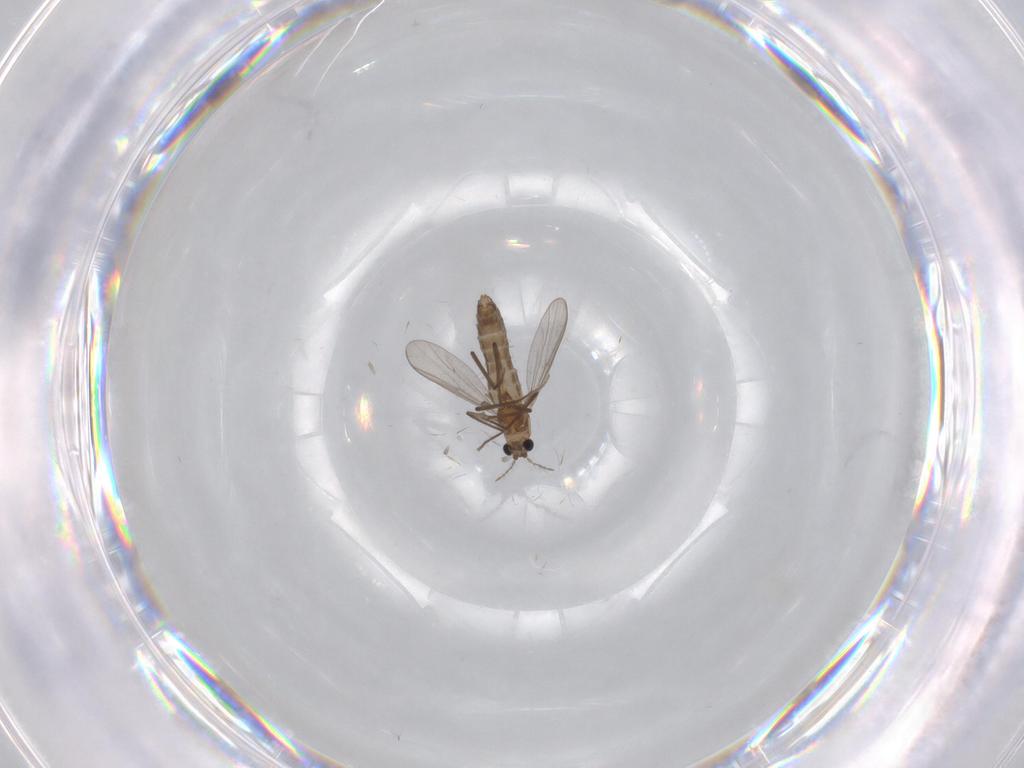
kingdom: Animalia
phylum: Arthropoda
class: Insecta
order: Diptera
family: Chironomidae
